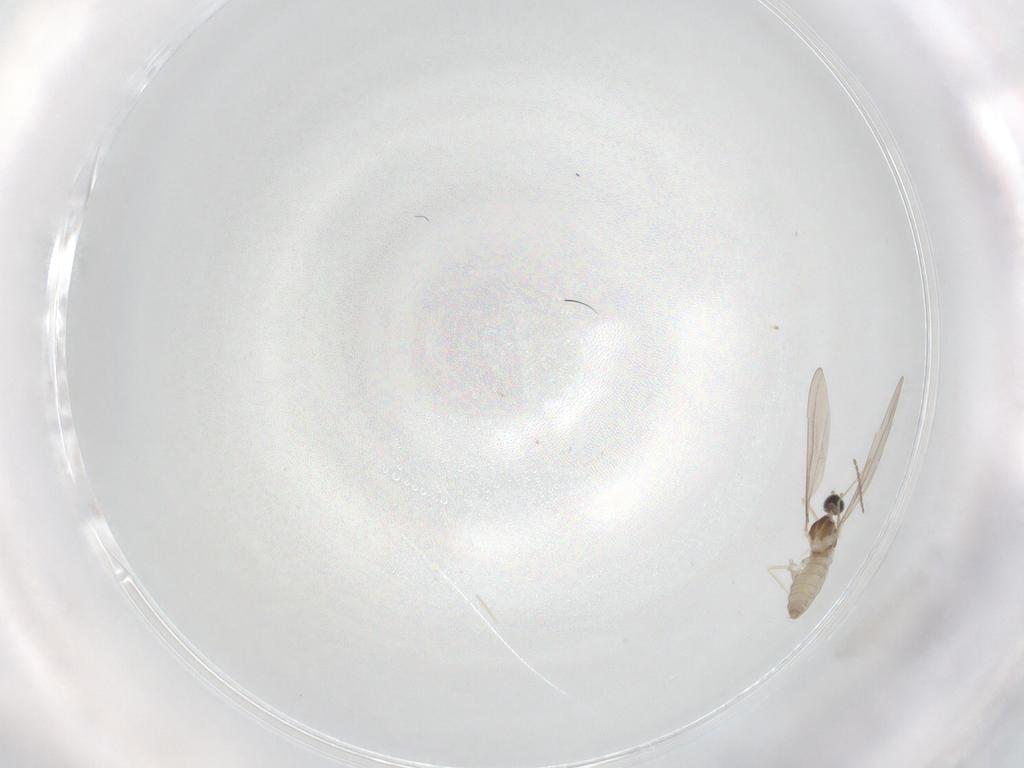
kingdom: Animalia
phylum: Arthropoda
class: Insecta
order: Diptera
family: Cecidomyiidae
